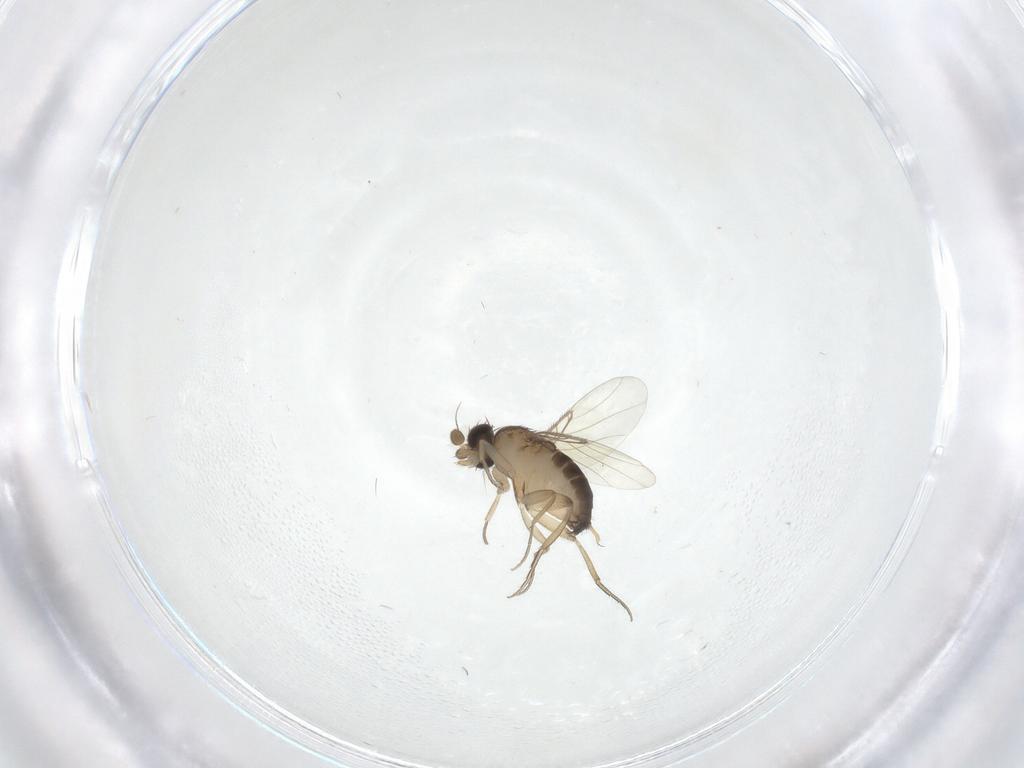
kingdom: Animalia
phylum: Arthropoda
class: Insecta
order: Diptera
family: Phoridae
